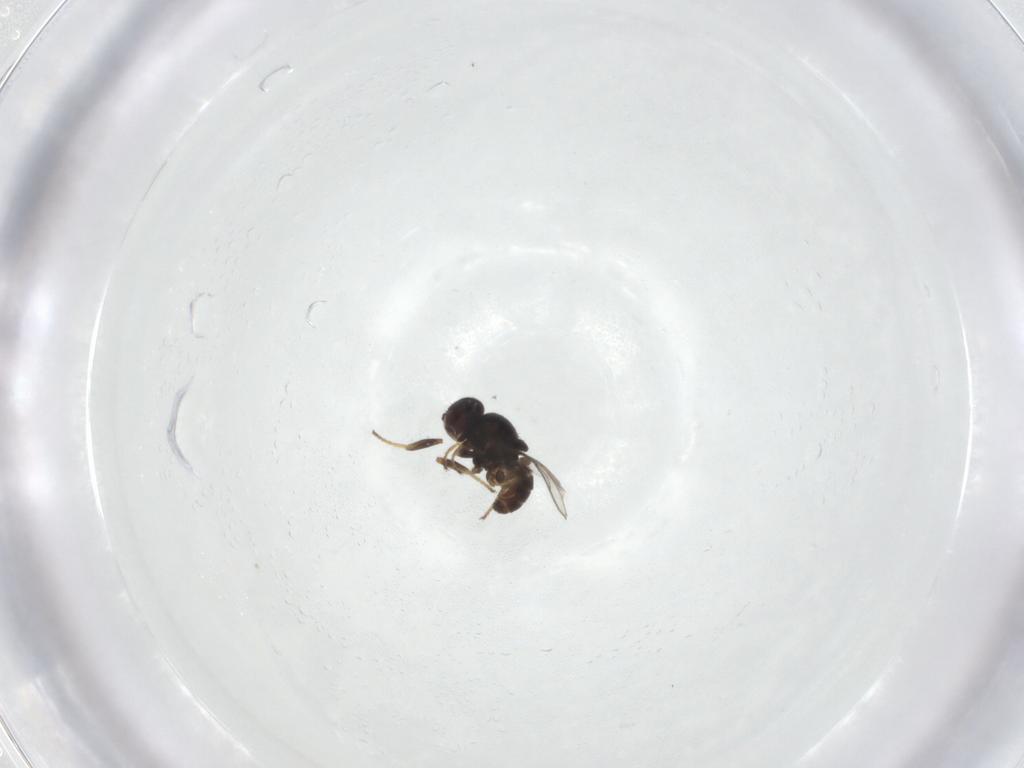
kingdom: Animalia
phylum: Arthropoda
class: Insecta
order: Diptera
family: Chloropidae
